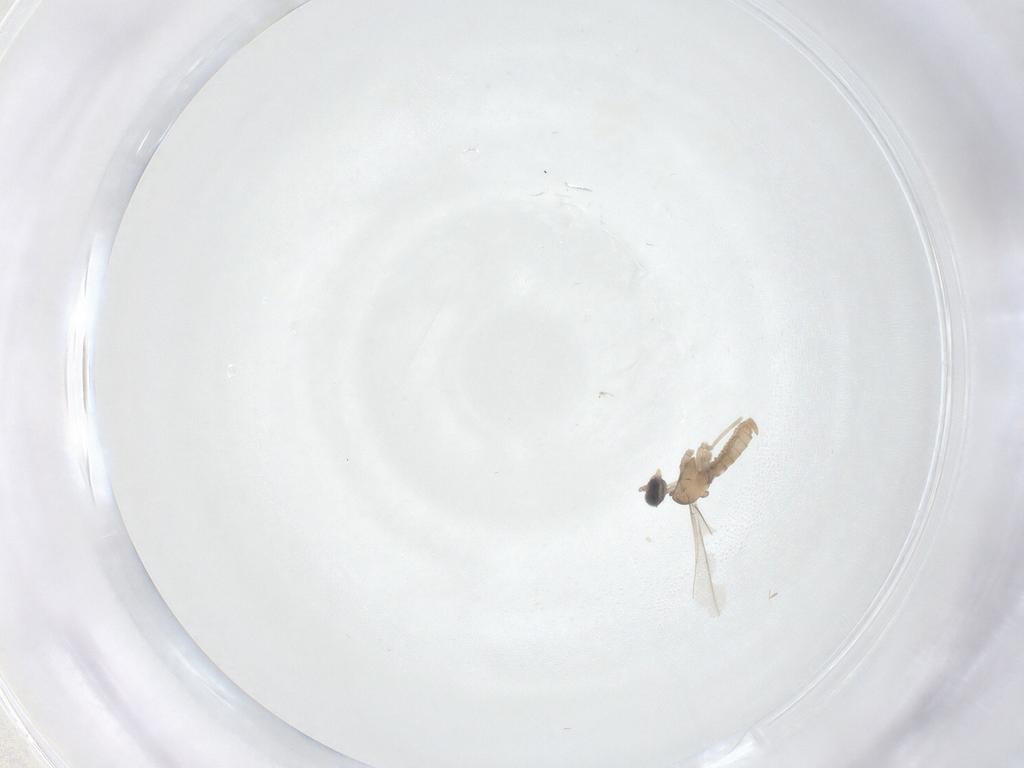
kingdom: Animalia
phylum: Arthropoda
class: Insecta
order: Diptera
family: Cecidomyiidae
